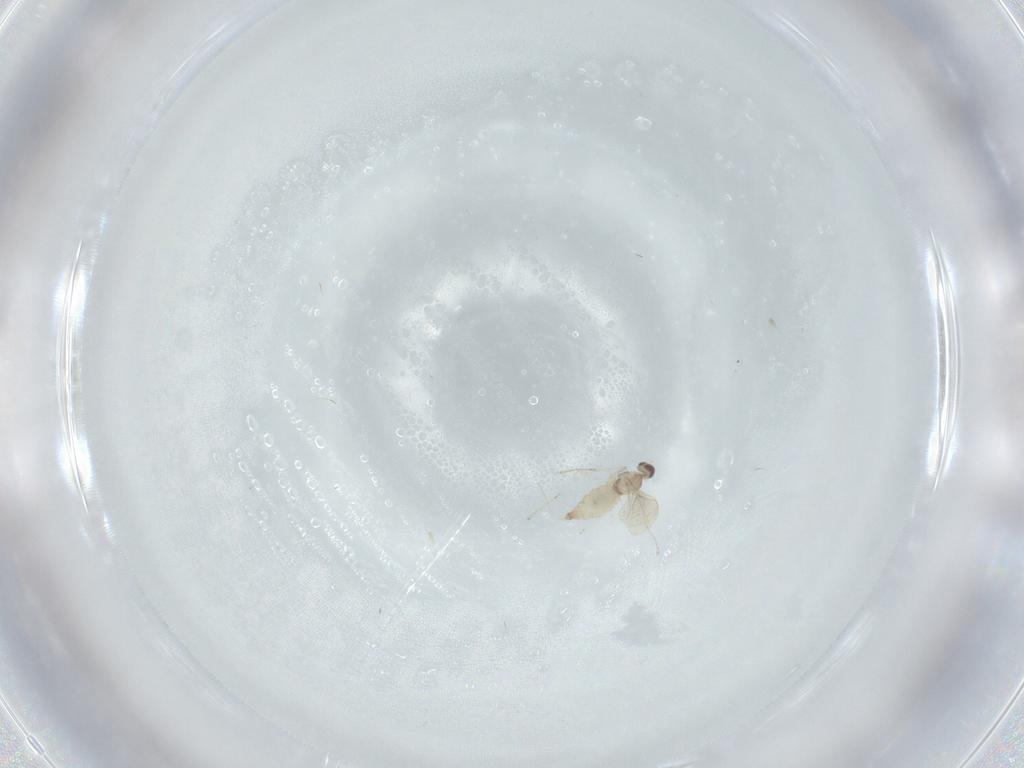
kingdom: Animalia
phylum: Arthropoda
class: Insecta
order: Diptera
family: Cecidomyiidae
